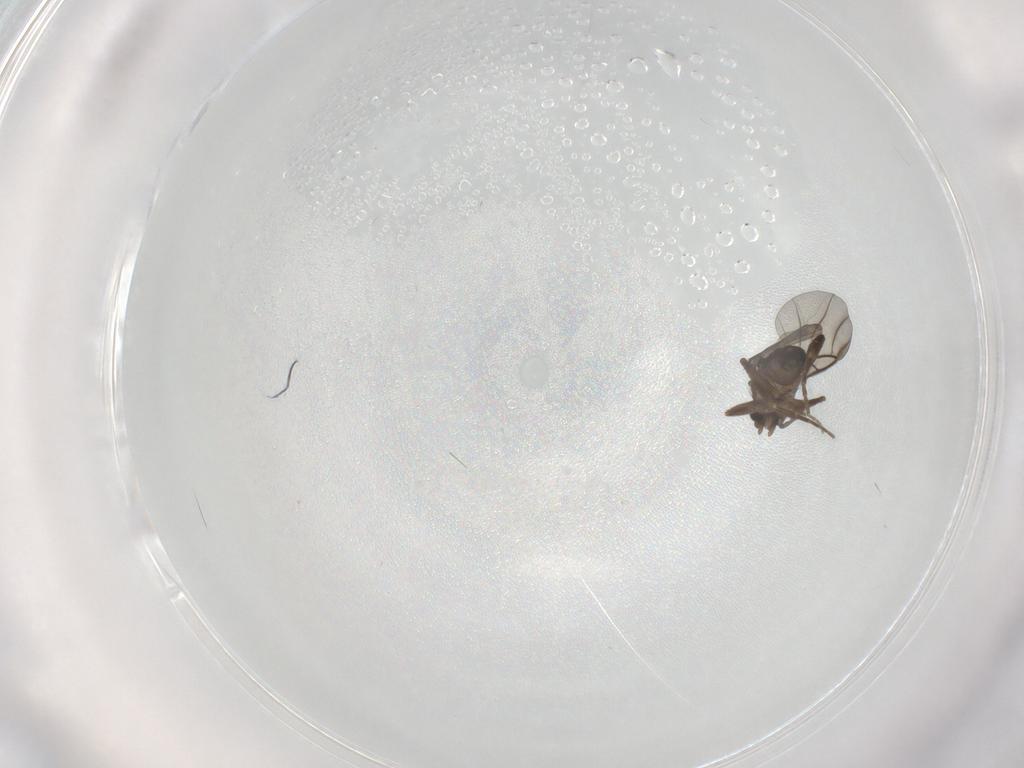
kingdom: Animalia
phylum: Arthropoda
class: Insecta
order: Diptera
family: Chironomidae
